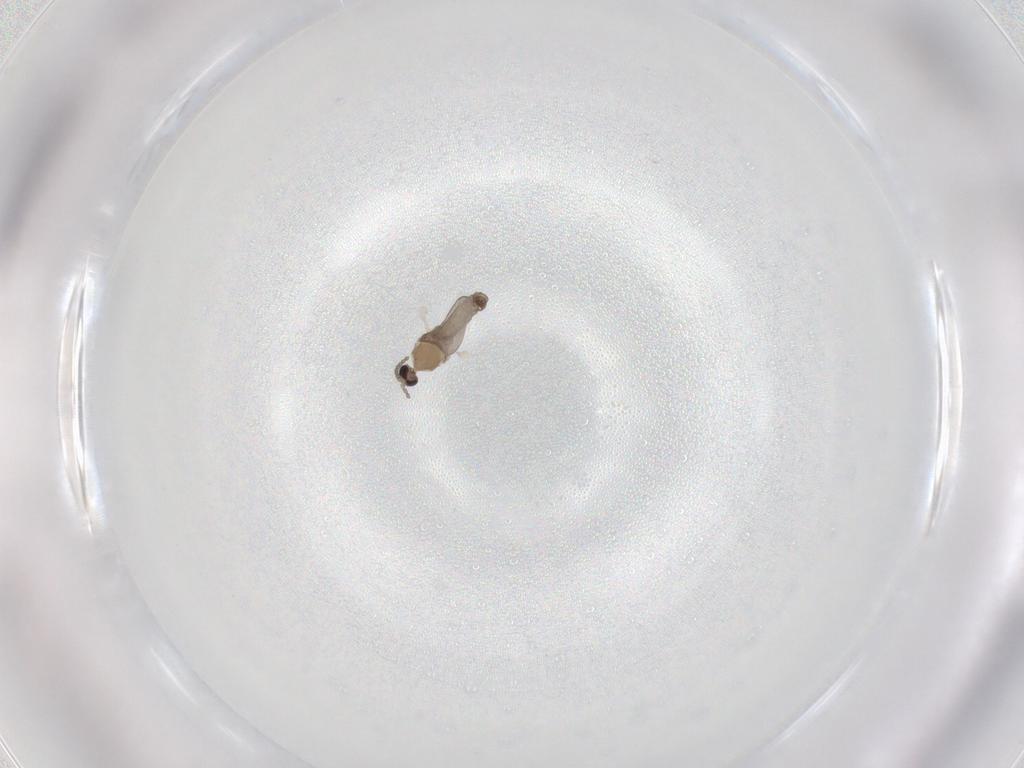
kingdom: Animalia
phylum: Arthropoda
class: Insecta
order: Diptera
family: Cecidomyiidae
